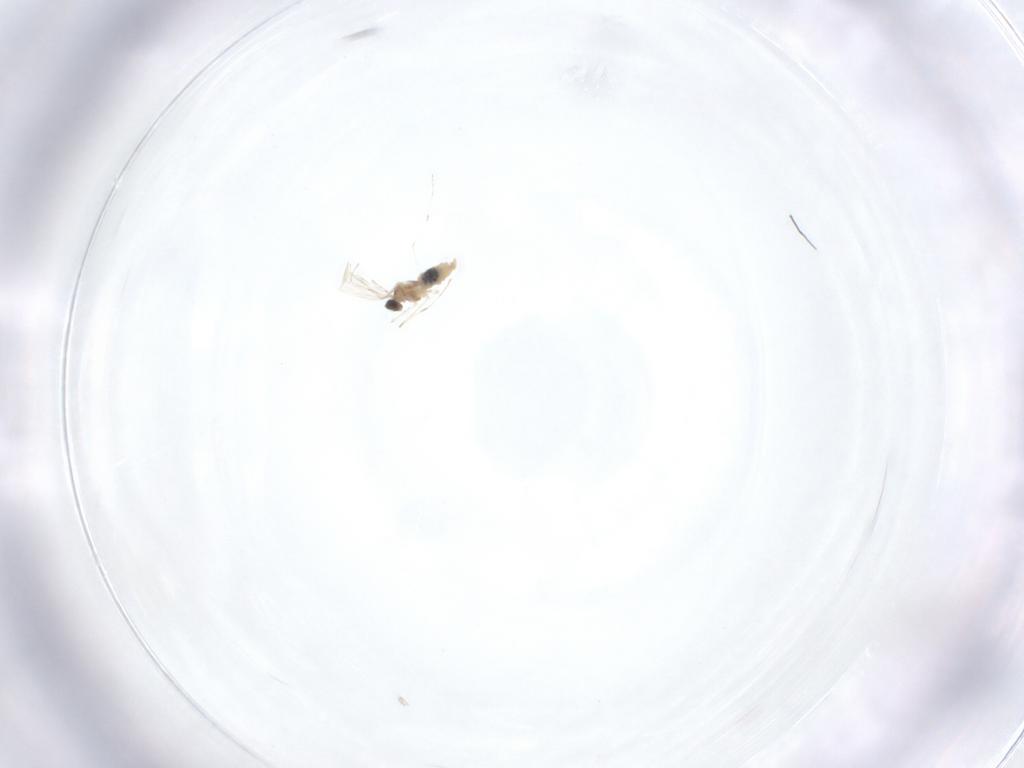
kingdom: Animalia
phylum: Arthropoda
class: Insecta
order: Diptera
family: Cecidomyiidae
